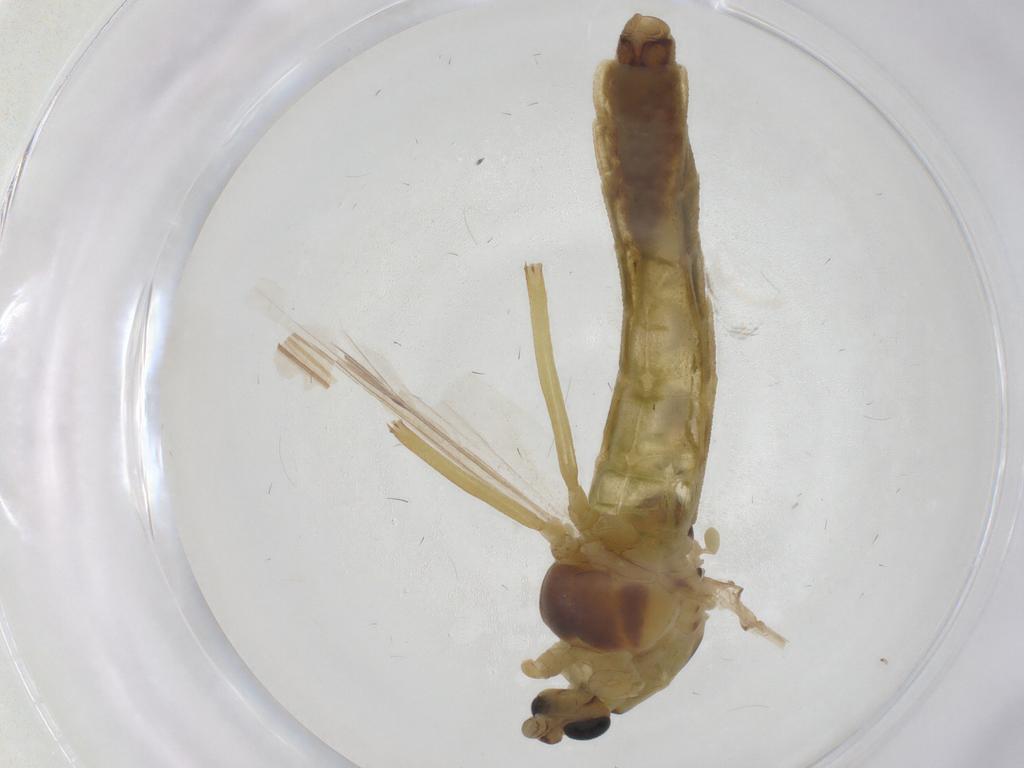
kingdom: Animalia
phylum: Arthropoda
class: Insecta
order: Diptera
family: Chironomidae
